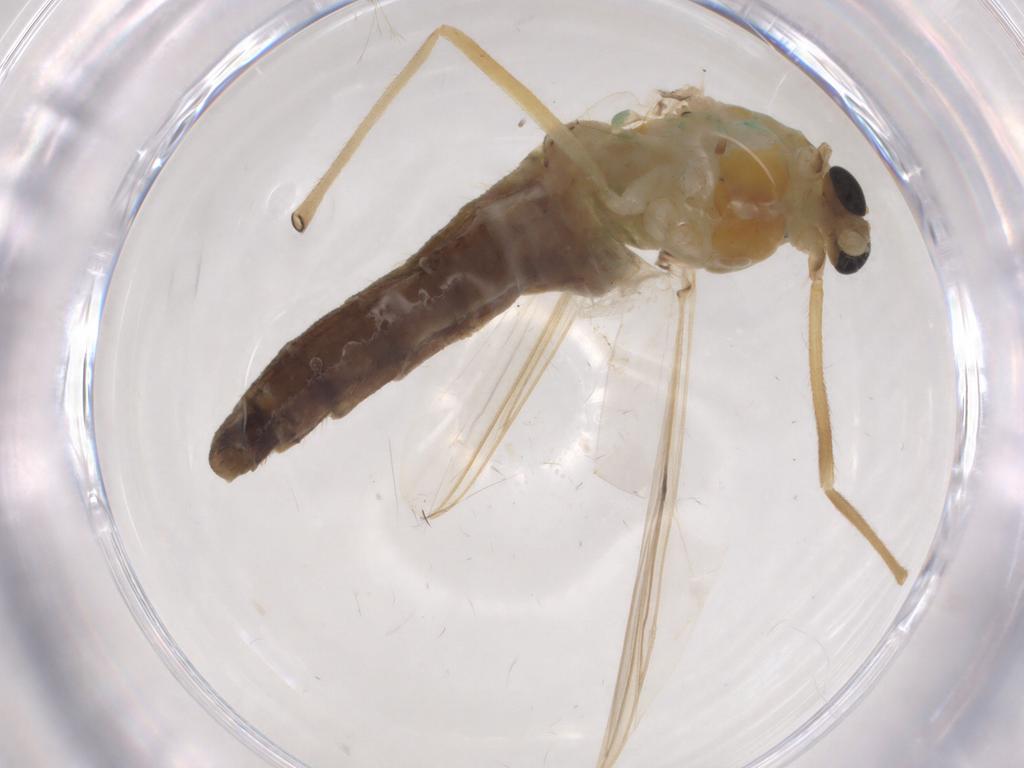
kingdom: Animalia
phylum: Arthropoda
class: Insecta
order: Diptera
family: Chironomidae
